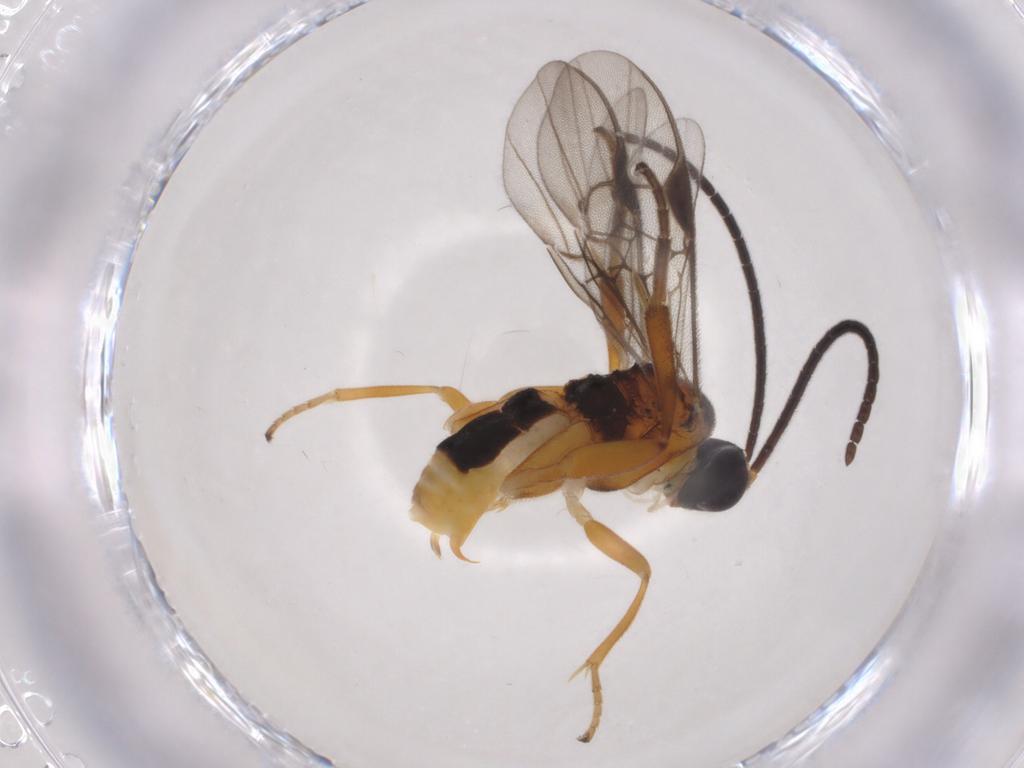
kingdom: Animalia
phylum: Arthropoda
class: Insecta
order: Hymenoptera
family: Braconidae
